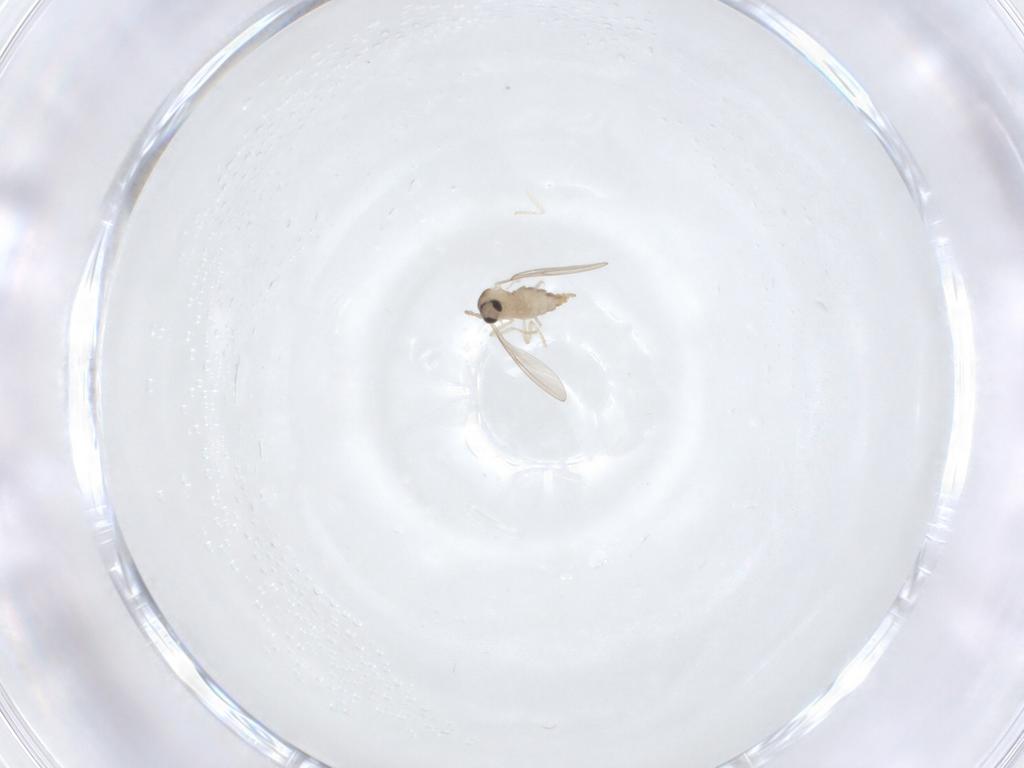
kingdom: Animalia
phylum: Arthropoda
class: Insecta
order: Diptera
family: Cecidomyiidae
